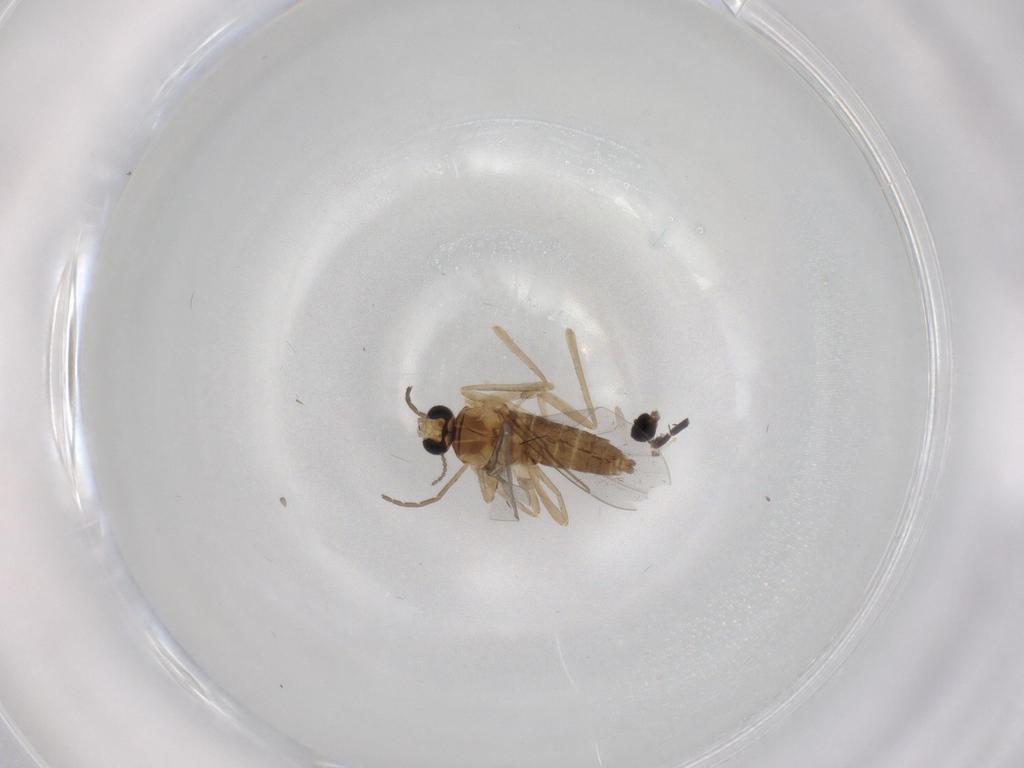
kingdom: Animalia
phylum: Arthropoda
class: Insecta
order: Diptera
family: Cecidomyiidae
